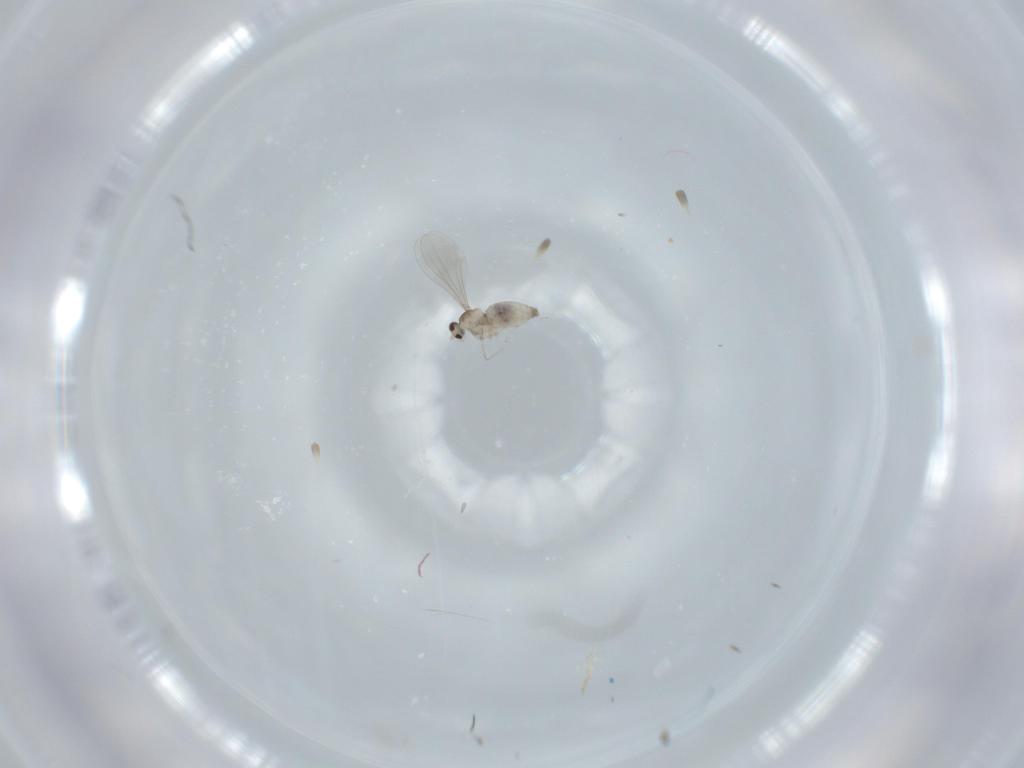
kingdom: Animalia
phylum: Arthropoda
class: Insecta
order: Diptera
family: Cecidomyiidae
